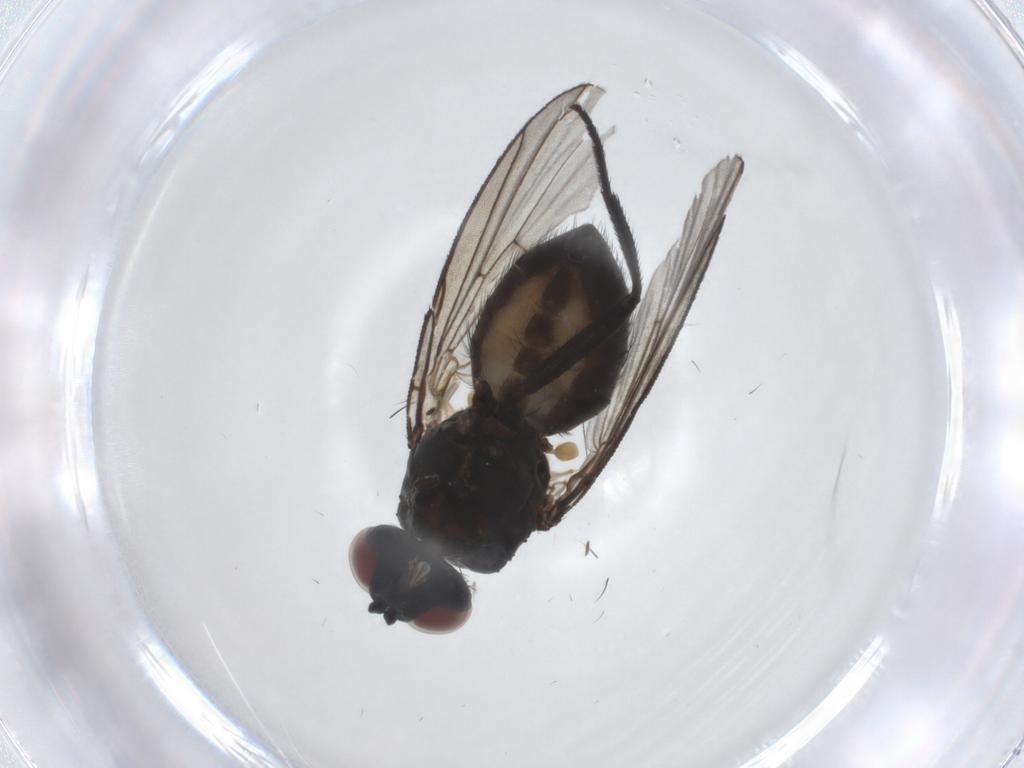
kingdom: Animalia
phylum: Arthropoda
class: Insecta
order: Diptera
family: Muscidae
